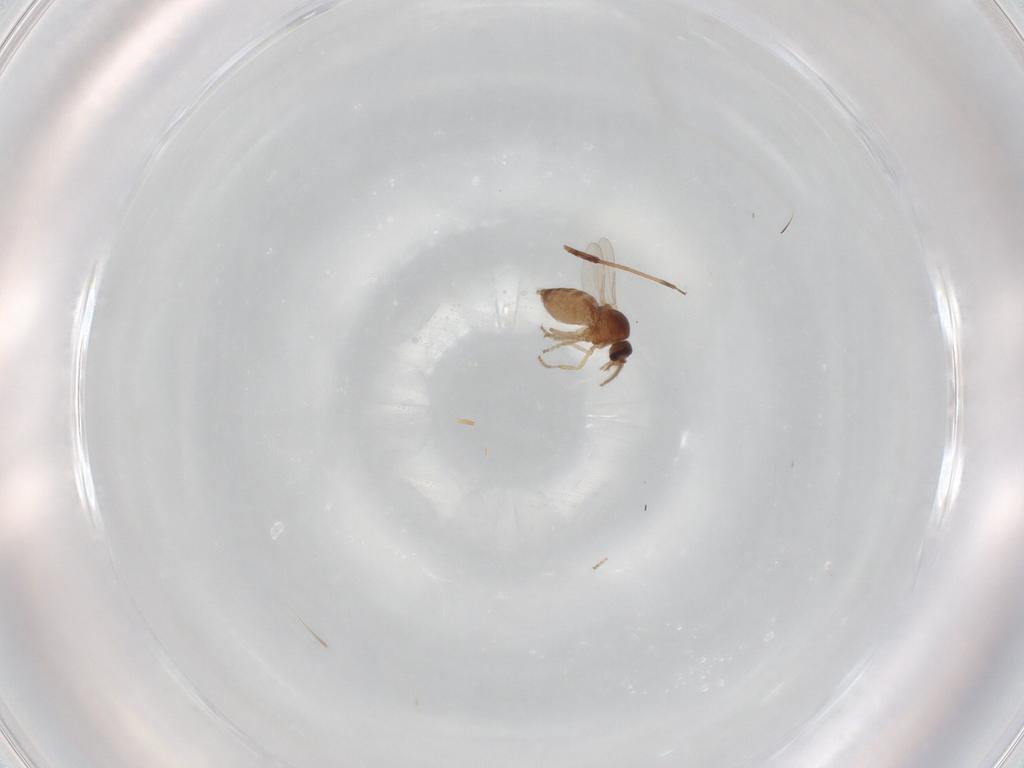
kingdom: Animalia
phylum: Arthropoda
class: Insecta
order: Diptera
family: Ceratopogonidae
